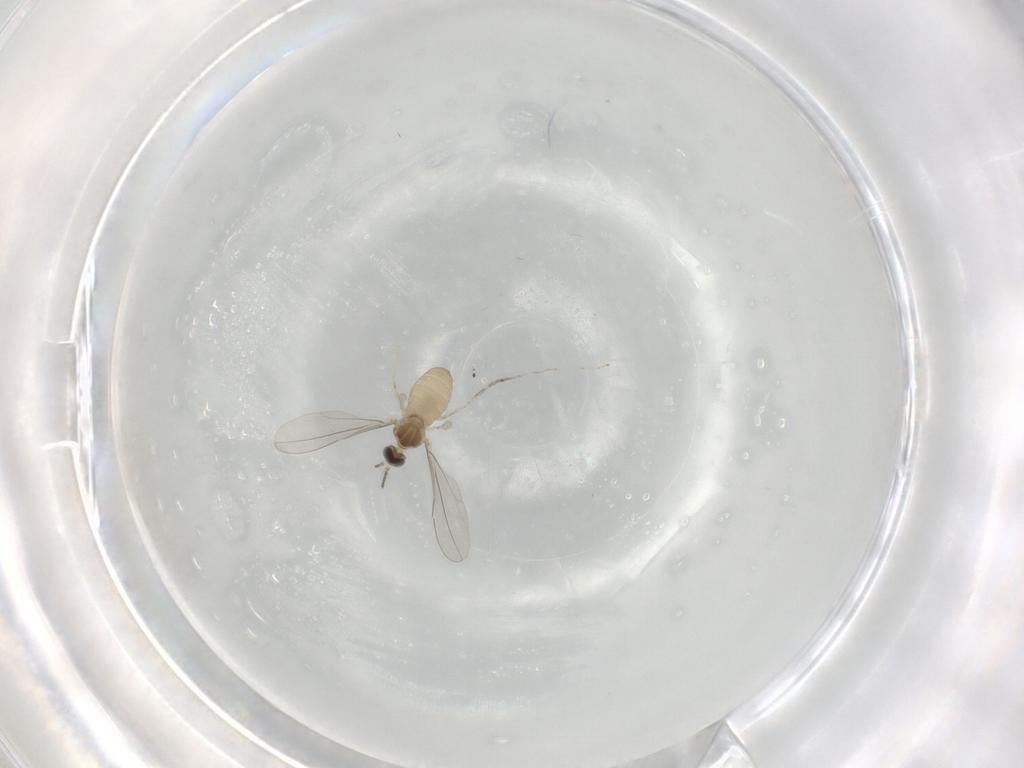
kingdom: Animalia
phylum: Arthropoda
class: Insecta
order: Diptera
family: Cecidomyiidae
